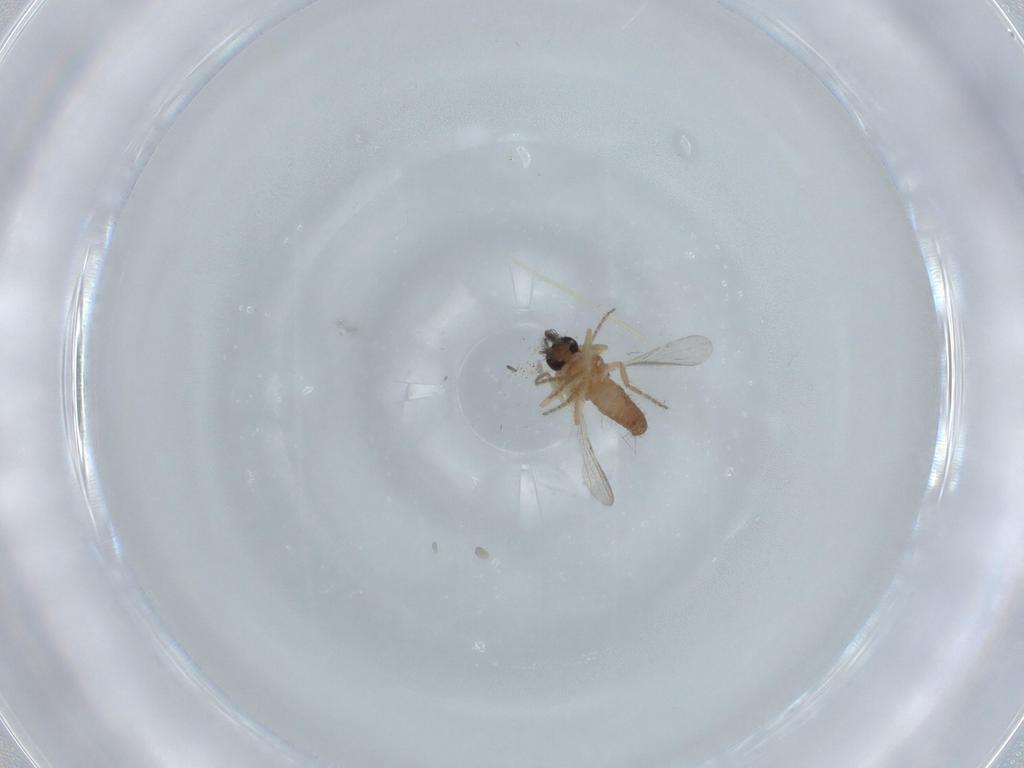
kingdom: Animalia
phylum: Arthropoda
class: Insecta
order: Diptera
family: Sphaeroceridae
